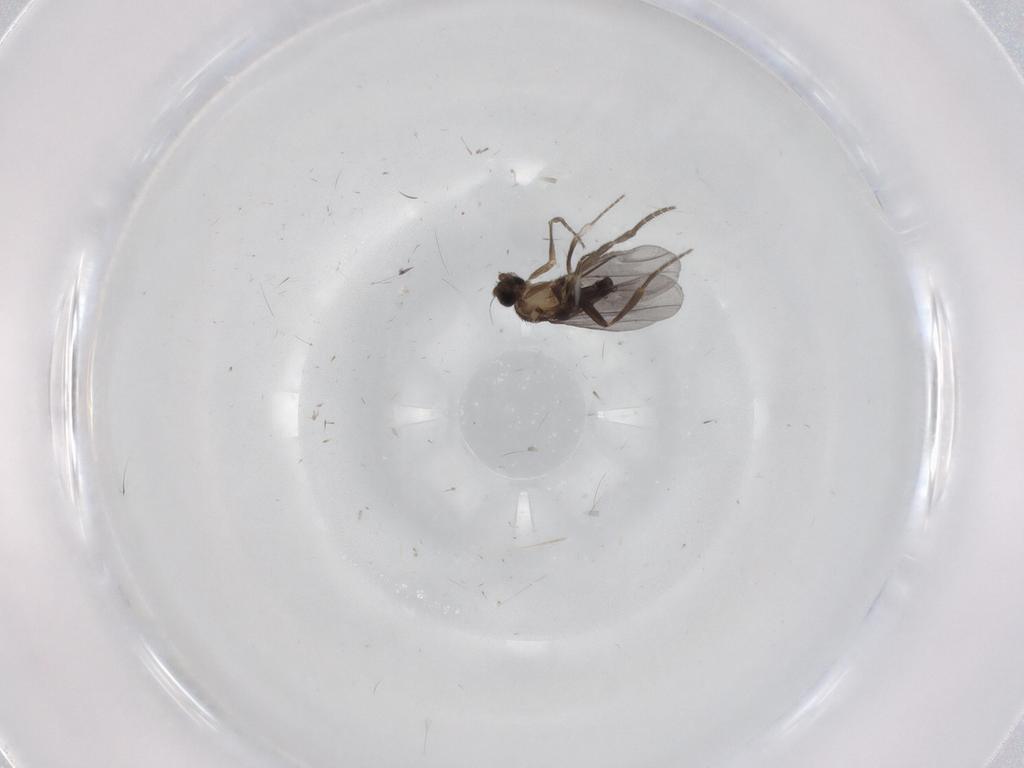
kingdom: Animalia
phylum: Arthropoda
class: Insecta
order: Diptera
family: Phoridae
